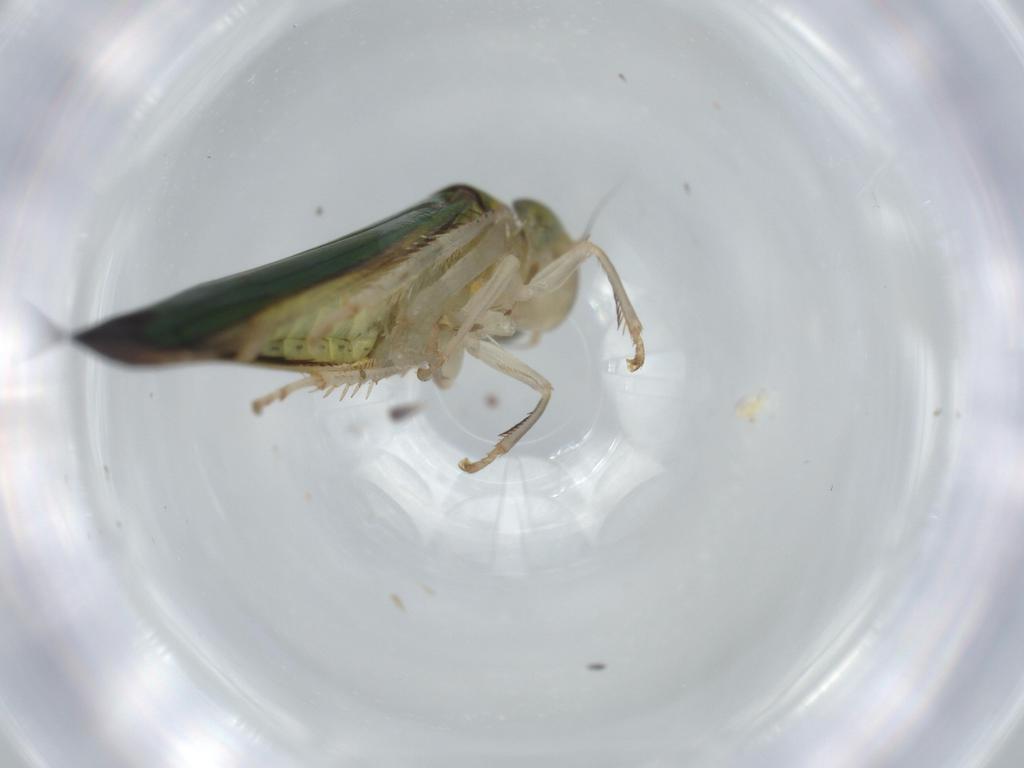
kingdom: Animalia
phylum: Arthropoda
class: Insecta
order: Hemiptera
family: Cicadellidae
